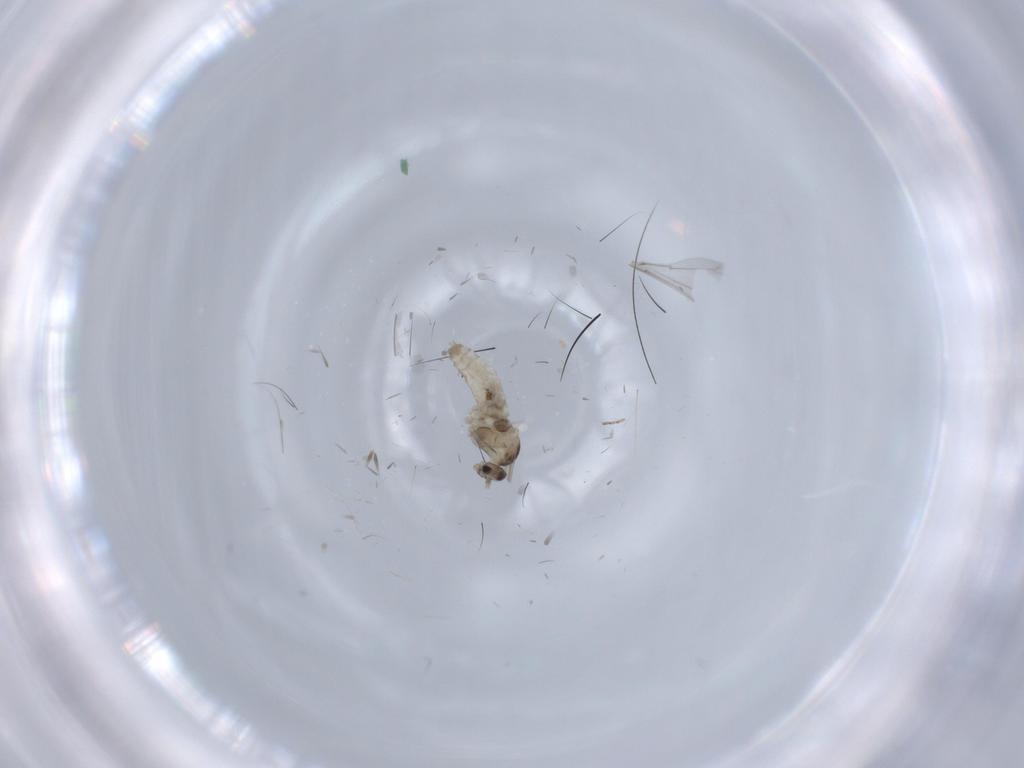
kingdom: Animalia
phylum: Arthropoda
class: Insecta
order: Diptera
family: Cecidomyiidae
